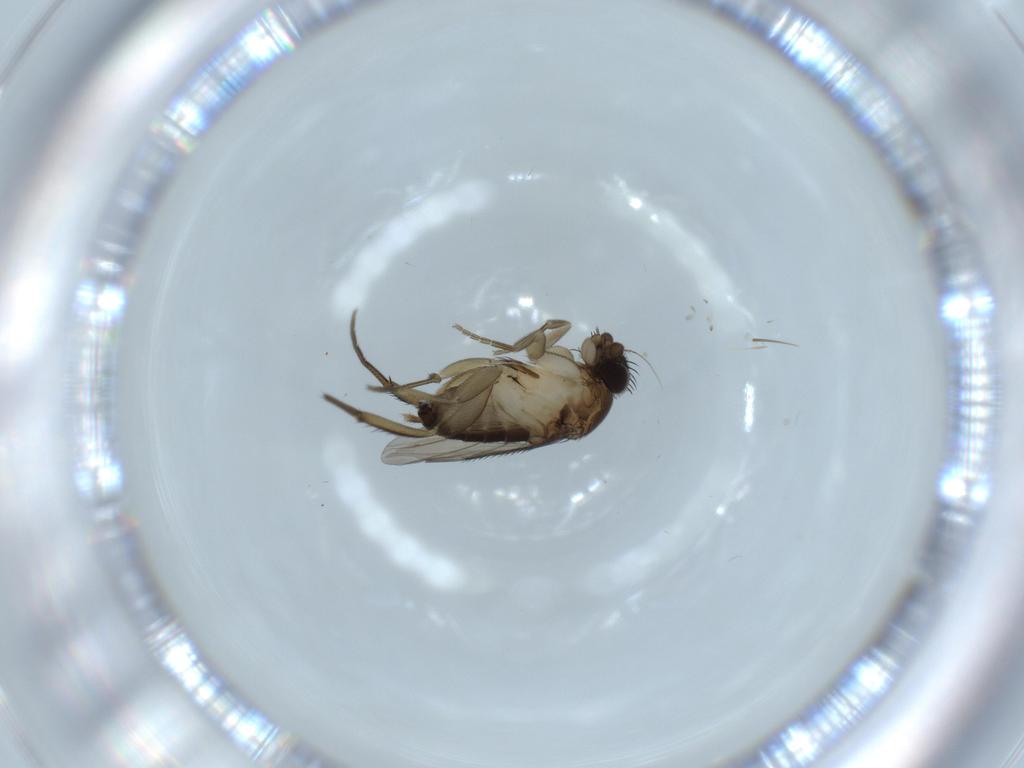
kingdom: Animalia
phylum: Arthropoda
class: Insecta
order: Diptera
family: Phoridae
